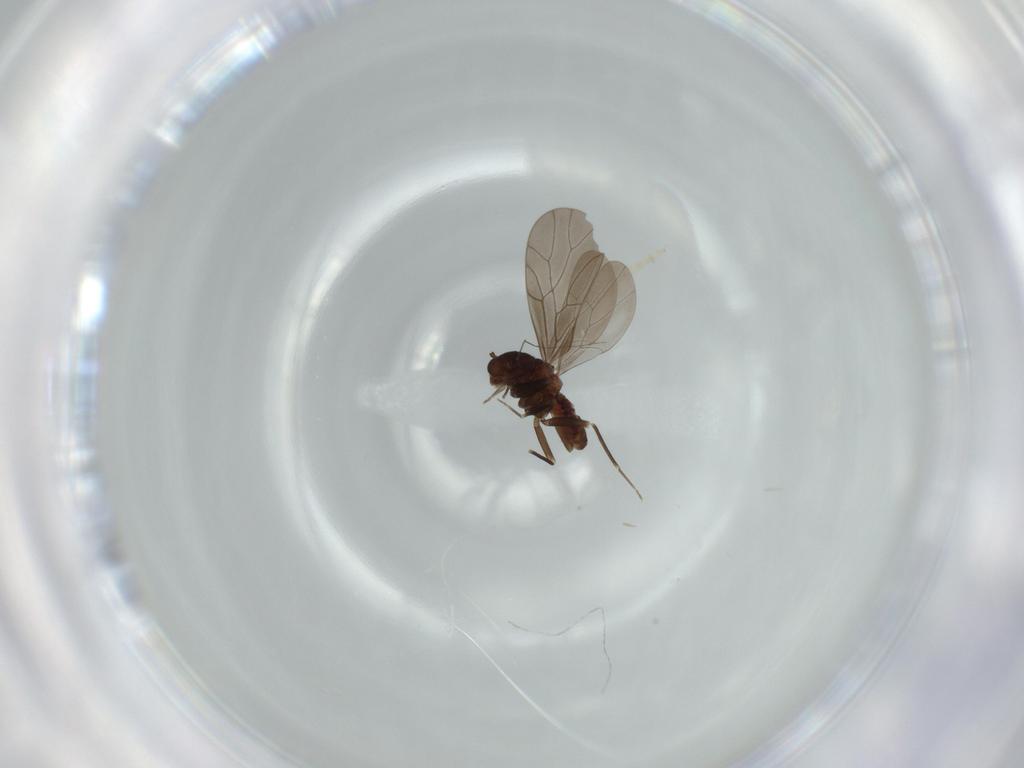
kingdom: Animalia
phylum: Arthropoda
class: Insecta
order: Psocodea
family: Lepidopsocidae
